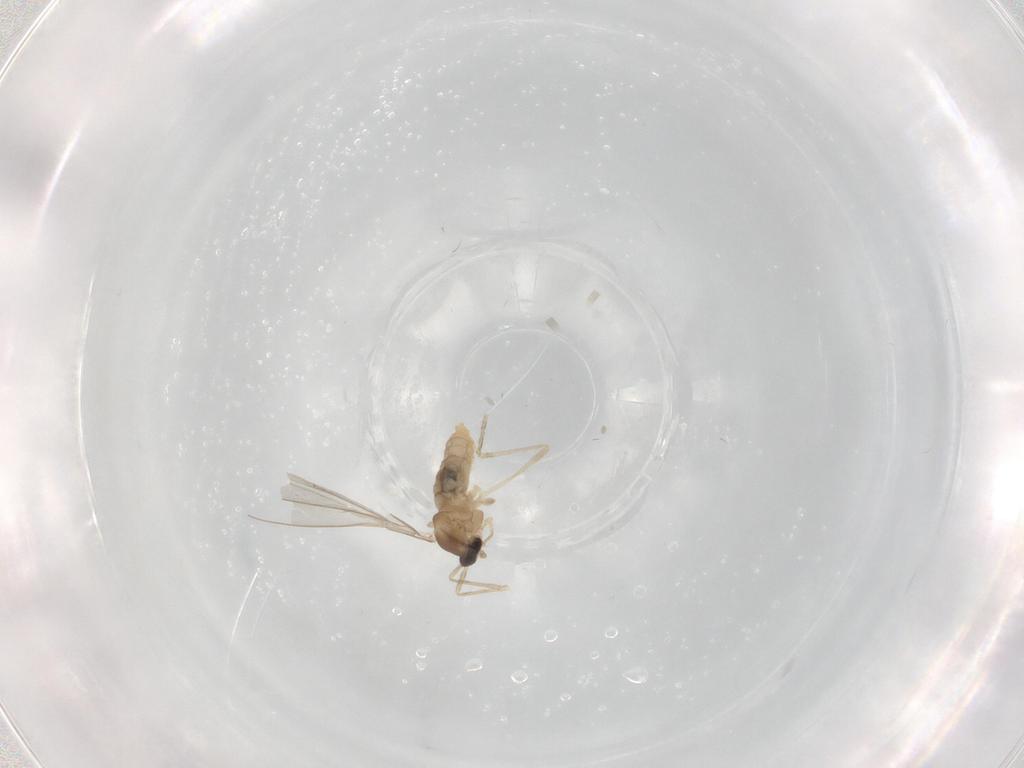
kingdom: Animalia
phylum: Arthropoda
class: Insecta
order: Diptera
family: Cecidomyiidae
